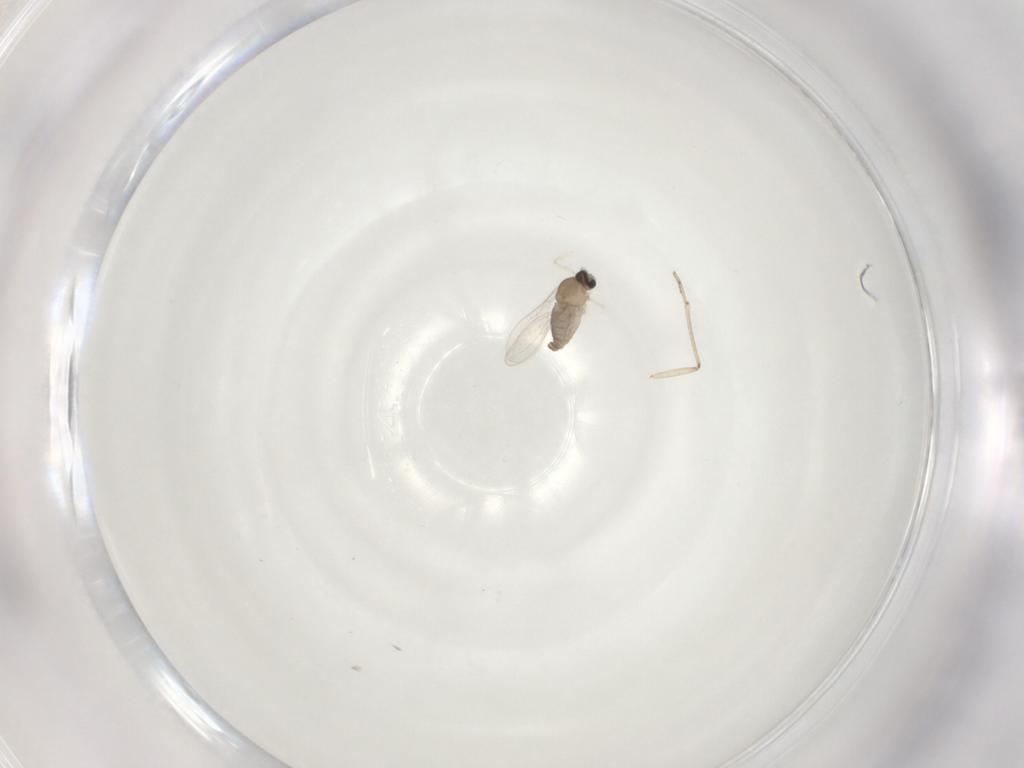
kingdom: Animalia
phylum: Arthropoda
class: Insecta
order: Diptera
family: Cecidomyiidae
